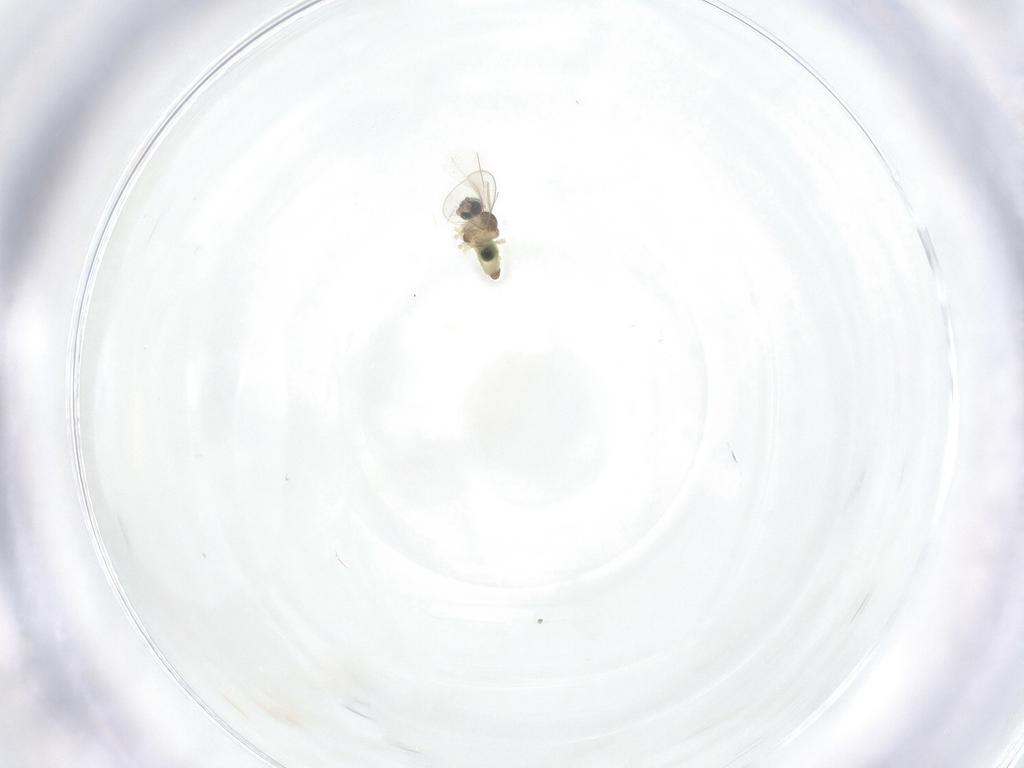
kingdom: Animalia
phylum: Arthropoda
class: Insecta
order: Diptera
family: Cecidomyiidae
